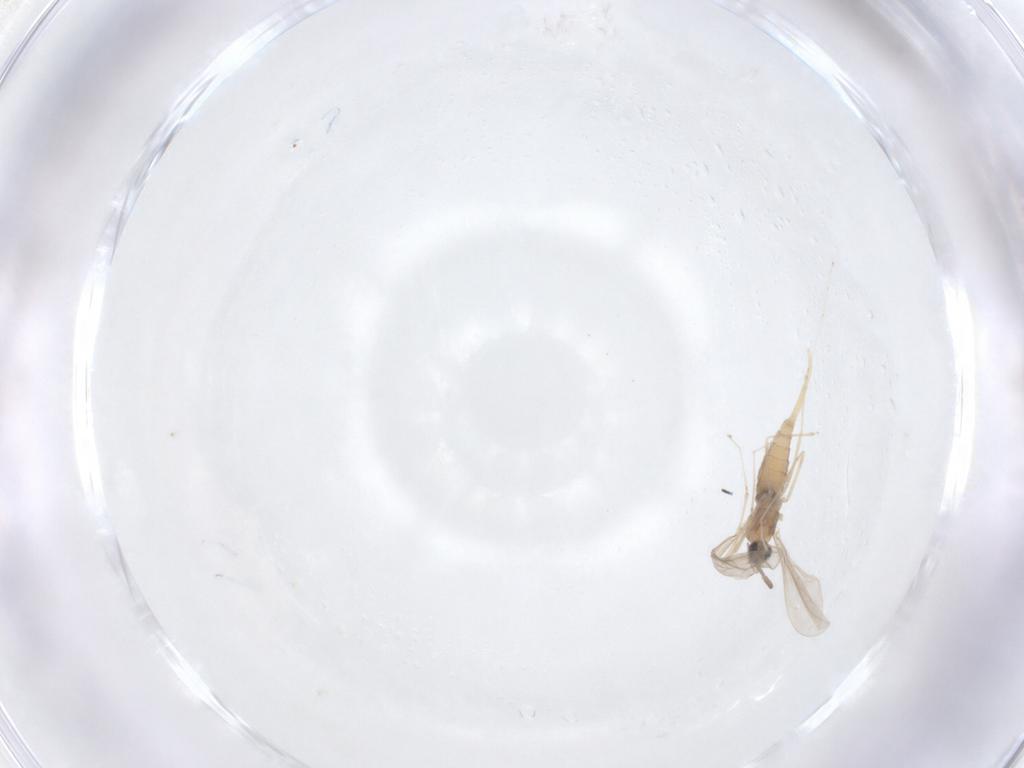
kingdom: Animalia
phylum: Arthropoda
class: Insecta
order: Diptera
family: Cecidomyiidae
